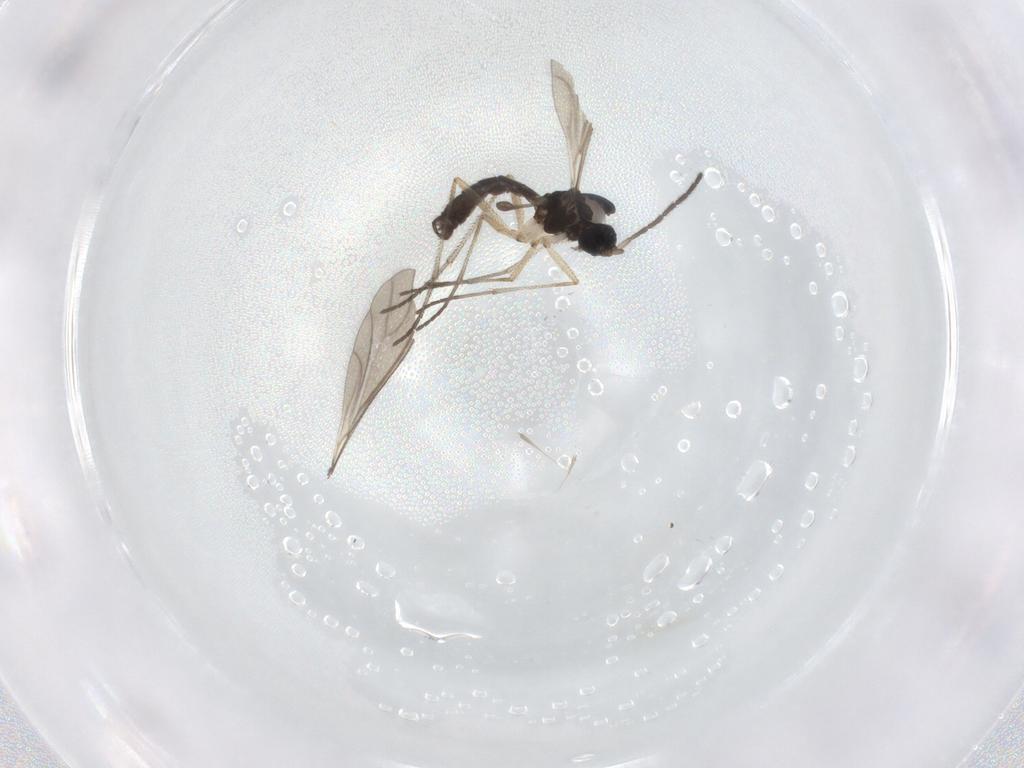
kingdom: Animalia
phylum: Arthropoda
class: Insecta
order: Diptera
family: Sciaridae
